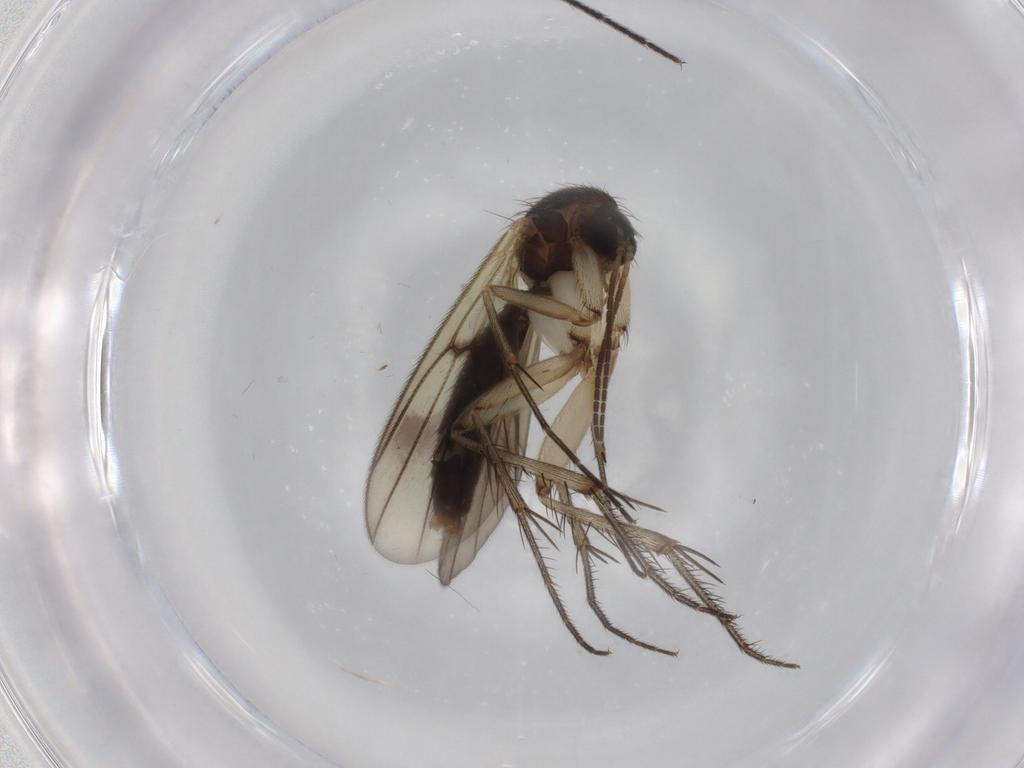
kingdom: Animalia
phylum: Arthropoda
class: Insecta
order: Diptera
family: Mycetophilidae
